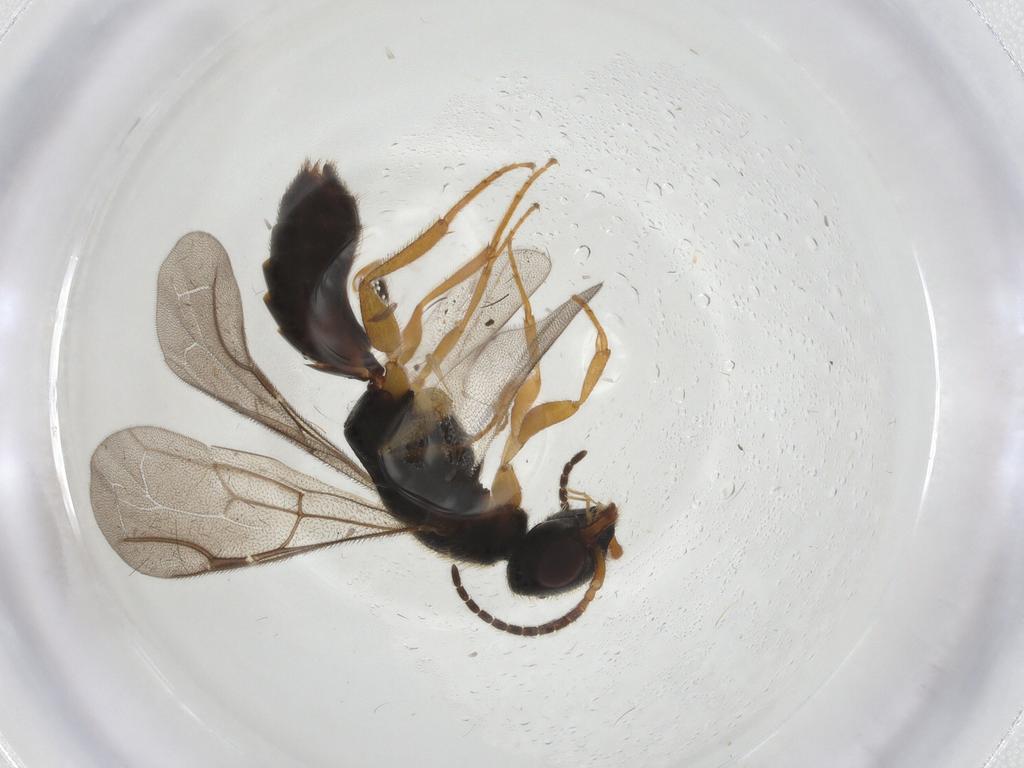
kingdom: Animalia
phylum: Arthropoda
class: Insecta
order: Hymenoptera
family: Bethylidae
